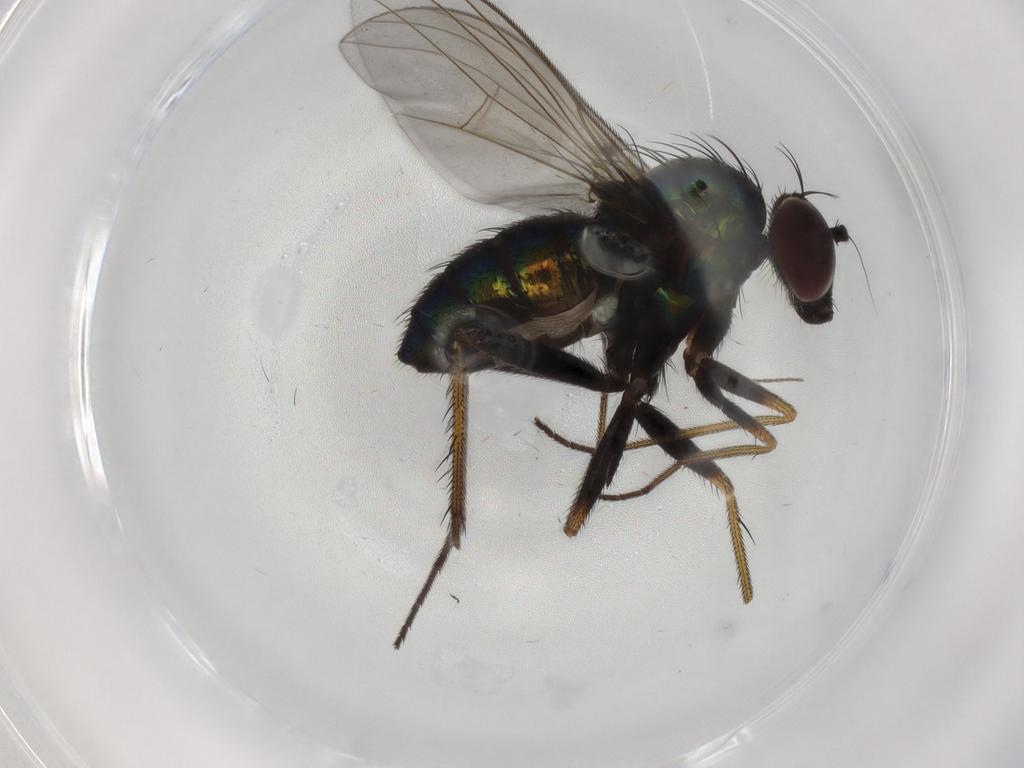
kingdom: Animalia
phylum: Arthropoda
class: Insecta
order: Diptera
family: Dolichopodidae
